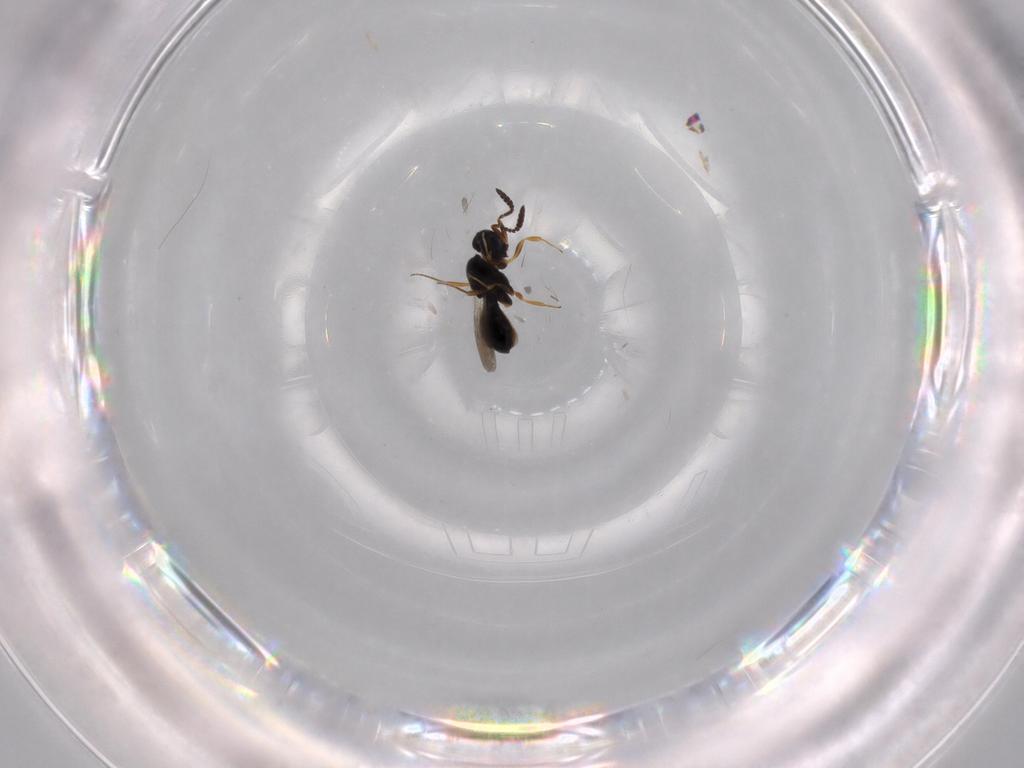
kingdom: Animalia
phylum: Arthropoda
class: Insecta
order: Hymenoptera
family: Scelionidae
